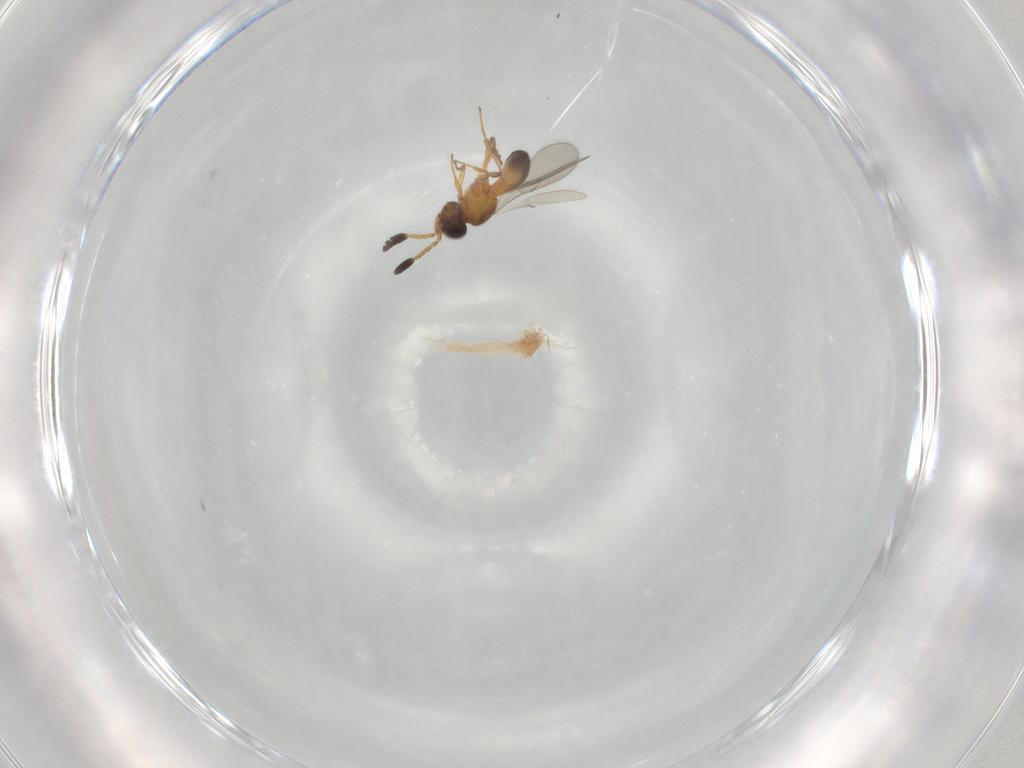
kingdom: Animalia
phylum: Arthropoda
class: Insecta
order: Hymenoptera
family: Scelionidae
